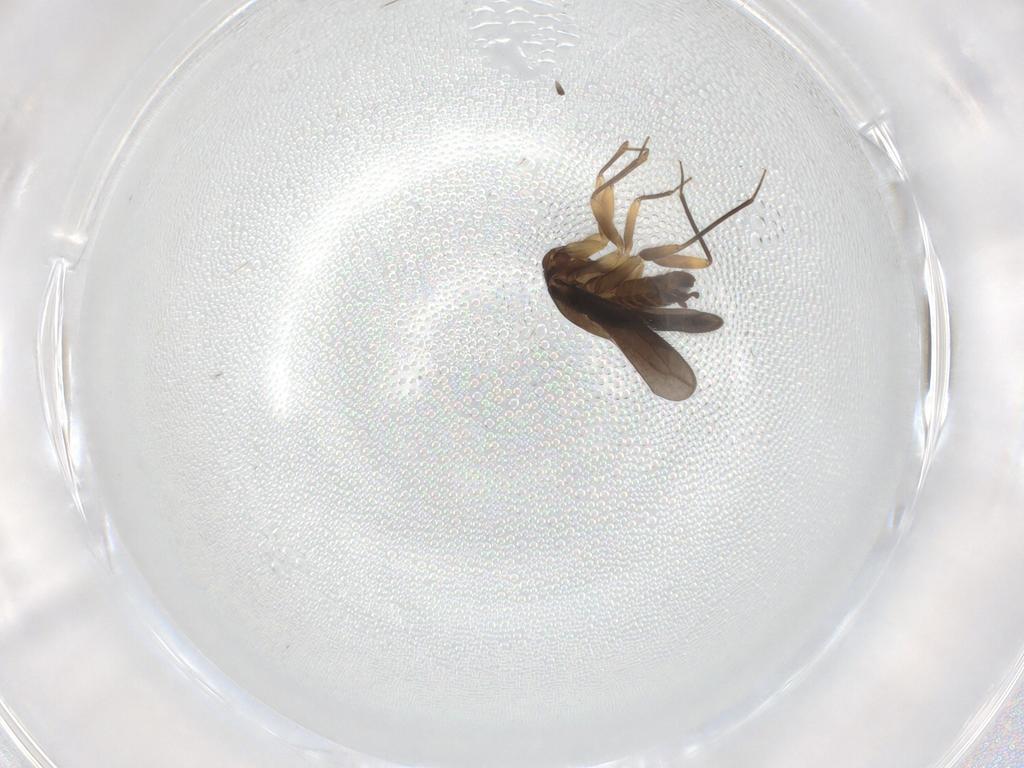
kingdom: Animalia
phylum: Arthropoda
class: Insecta
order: Hemiptera
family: Ceratocombidae
